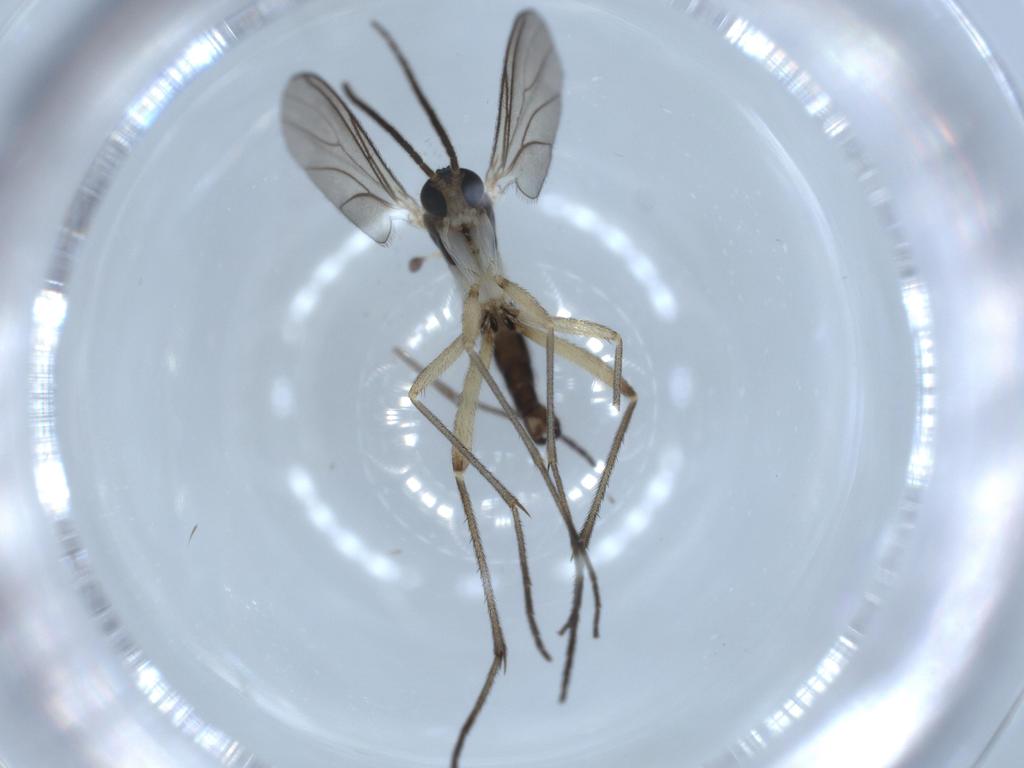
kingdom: Animalia
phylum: Arthropoda
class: Insecta
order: Diptera
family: Sciaridae
